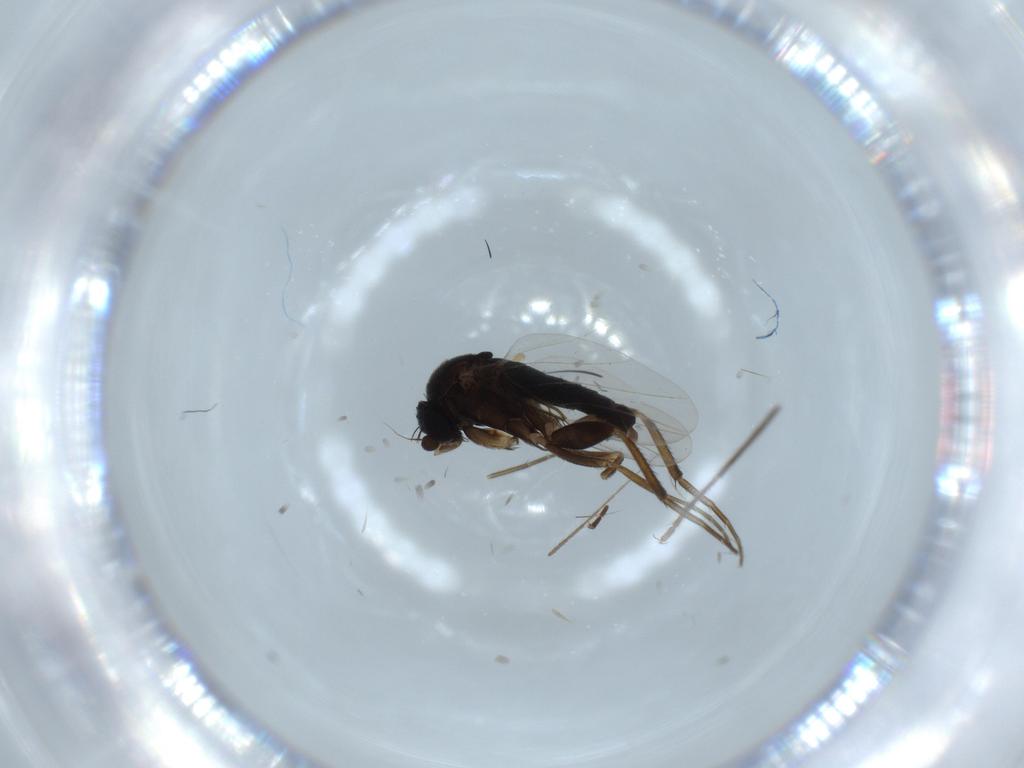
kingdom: Animalia
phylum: Arthropoda
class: Insecta
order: Diptera
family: Phoridae
